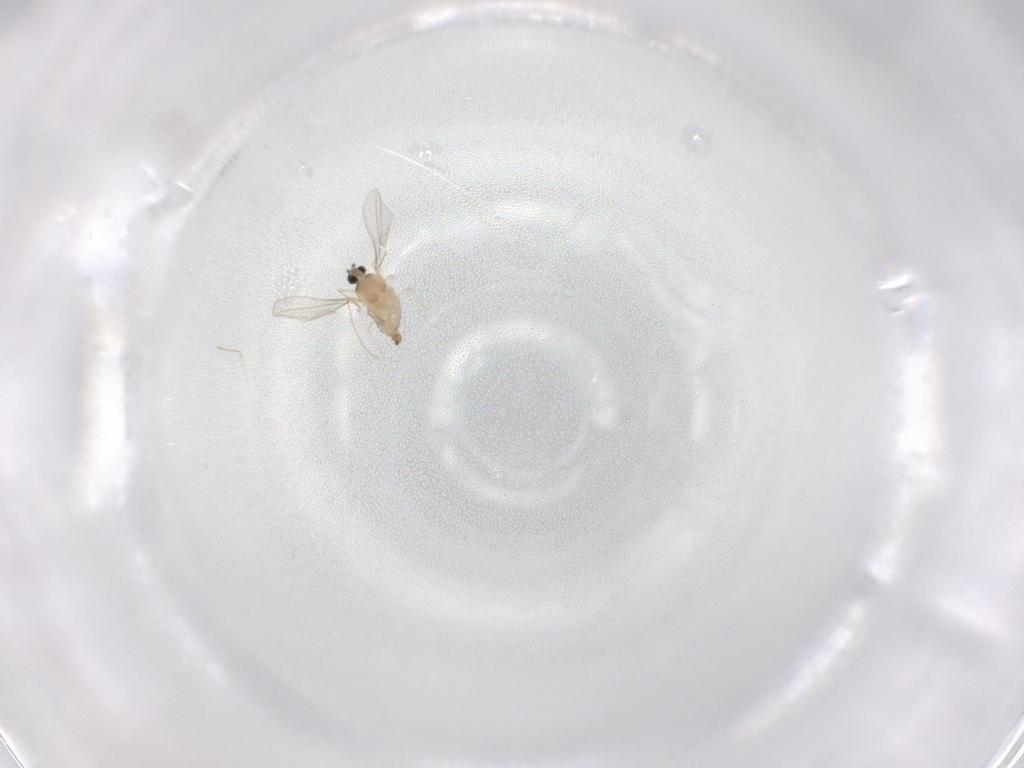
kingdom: Animalia
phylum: Arthropoda
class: Insecta
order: Diptera
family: Cecidomyiidae
